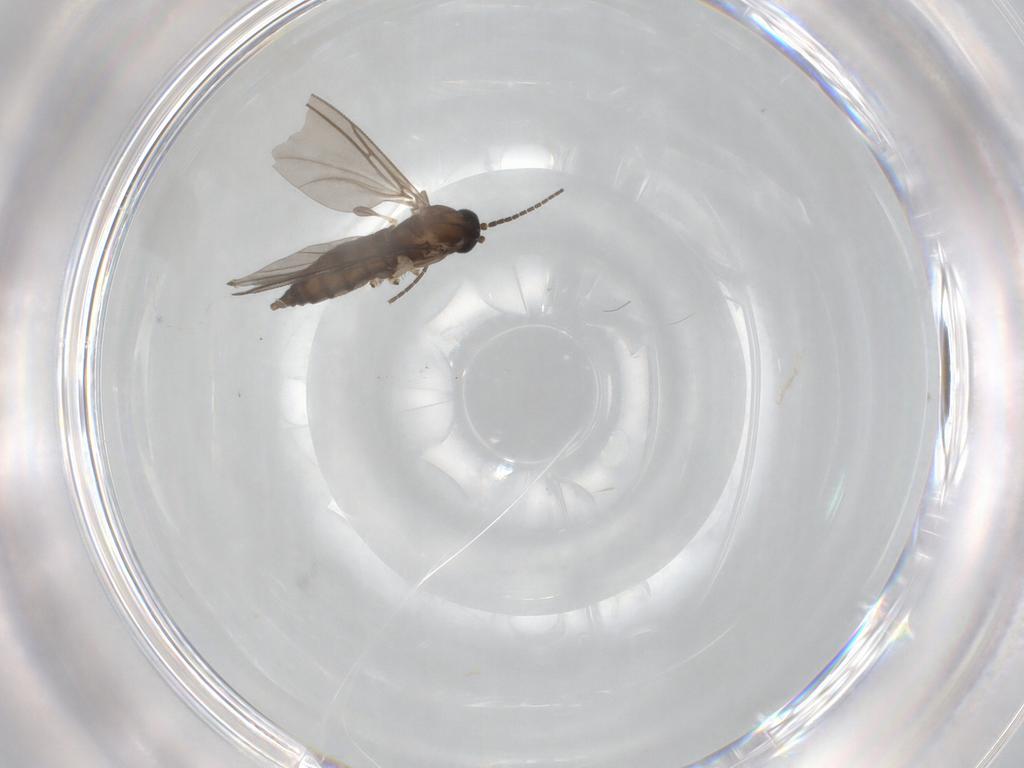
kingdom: Animalia
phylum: Arthropoda
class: Insecta
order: Diptera
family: Sciaridae
